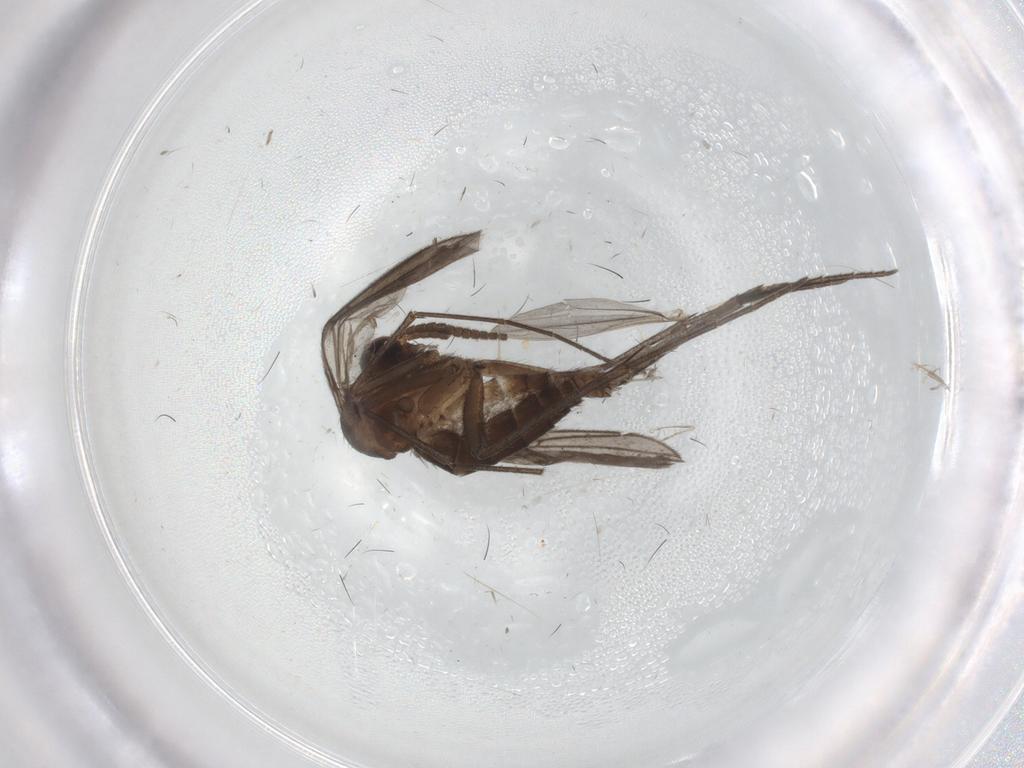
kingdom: Animalia
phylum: Arthropoda
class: Insecta
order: Diptera
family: Mycetophilidae
